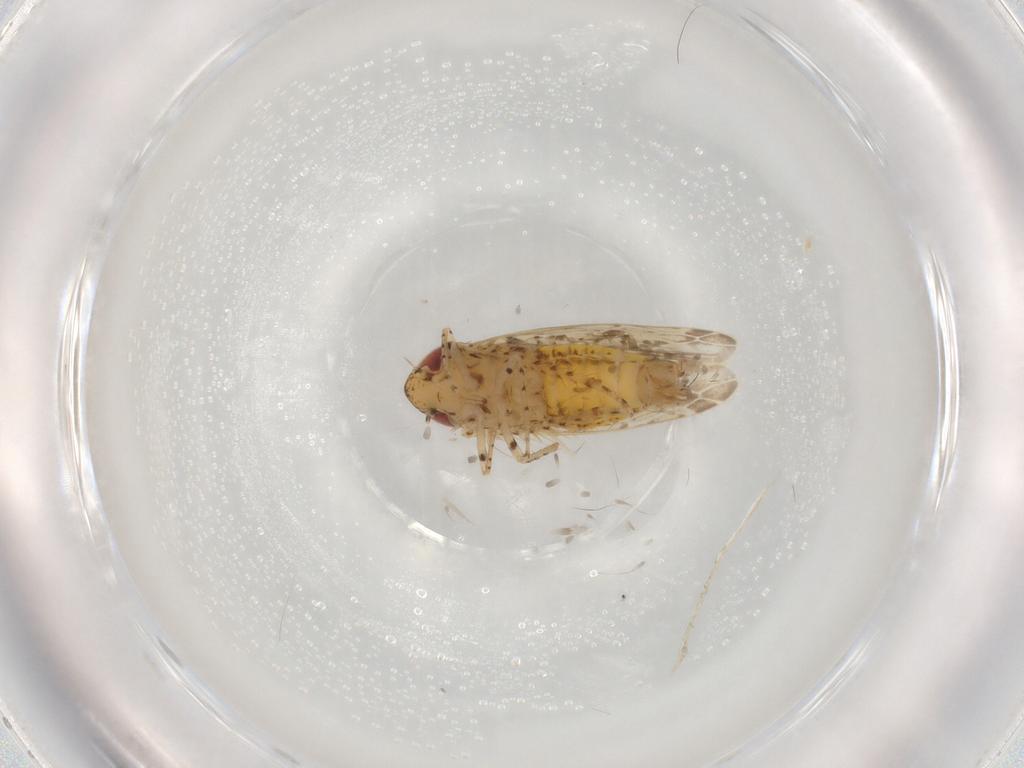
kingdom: Animalia
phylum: Arthropoda
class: Insecta
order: Hemiptera
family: Cicadellidae
